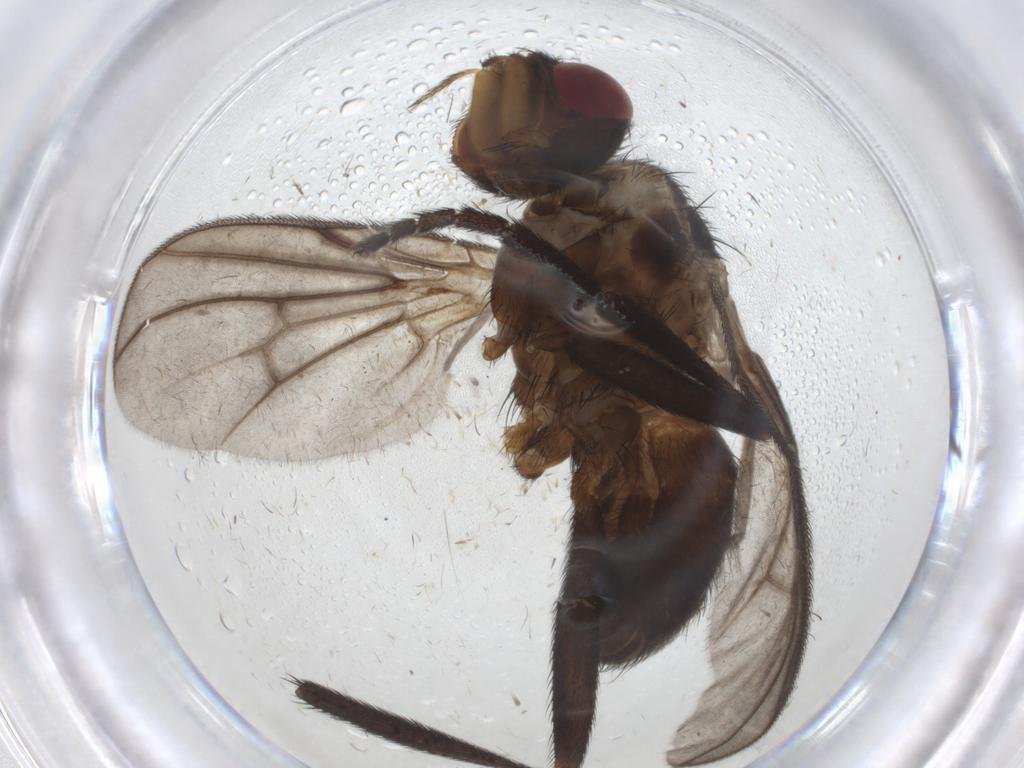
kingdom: Animalia
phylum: Arthropoda
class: Insecta
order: Diptera
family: Calliphoridae
